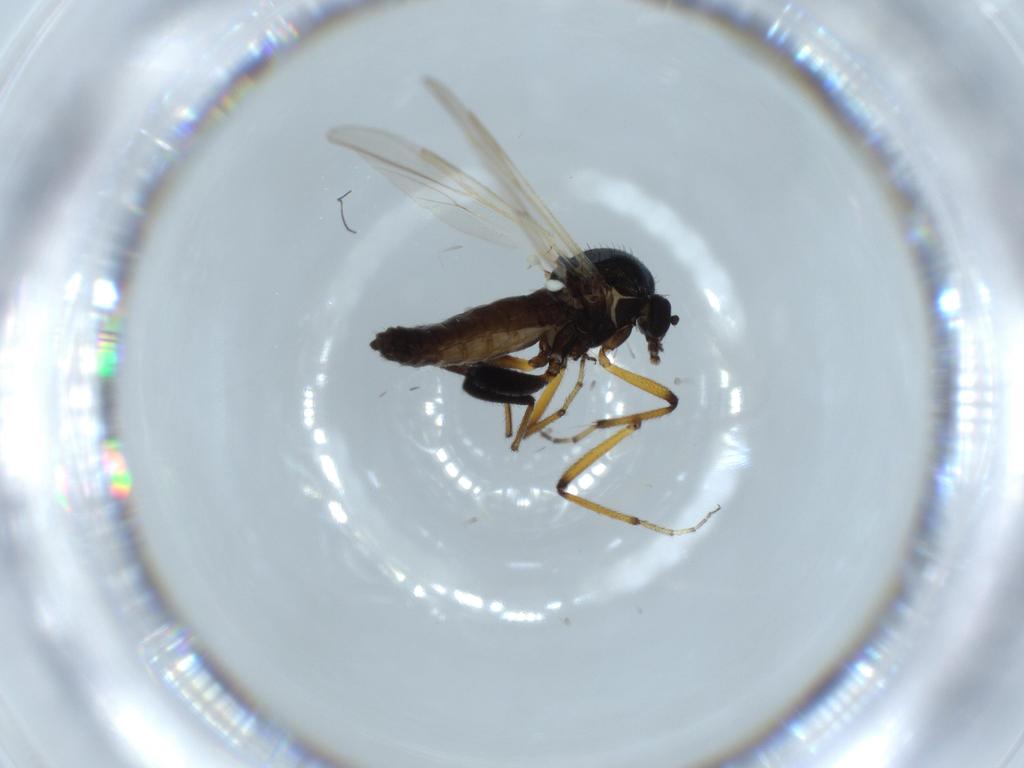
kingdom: Animalia
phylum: Arthropoda
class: Insecta
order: Diptera
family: Ceratopogonidae
